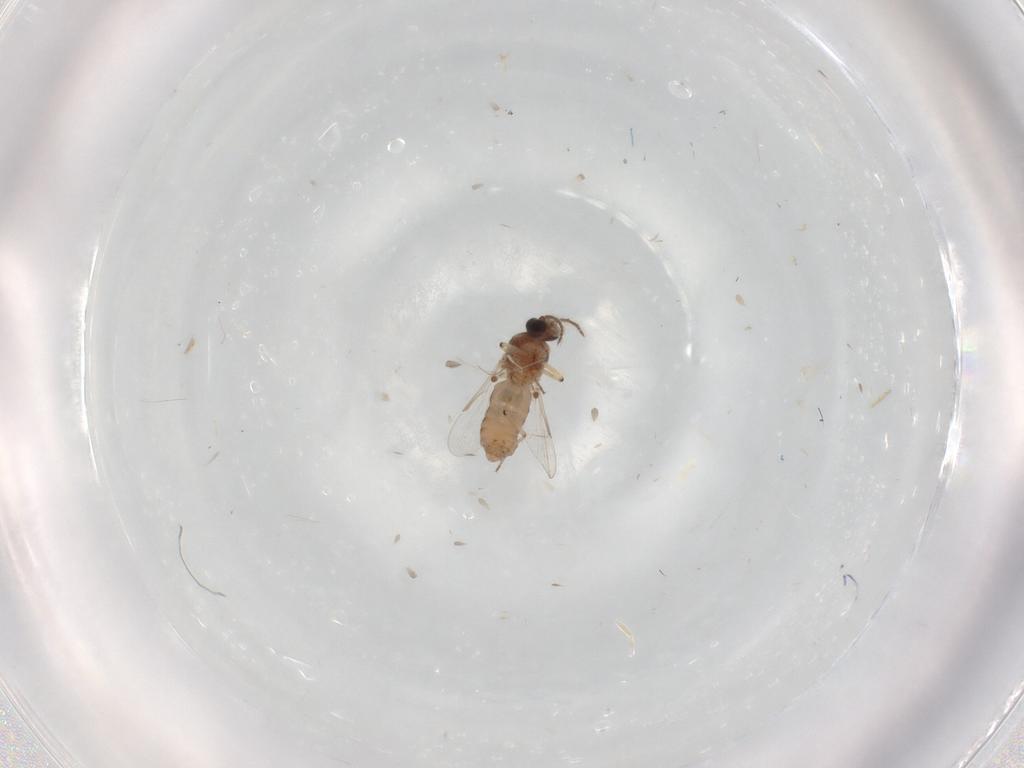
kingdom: Animalia
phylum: Arthropoda
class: Insecta
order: Diptera
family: Ceratopogonidae
